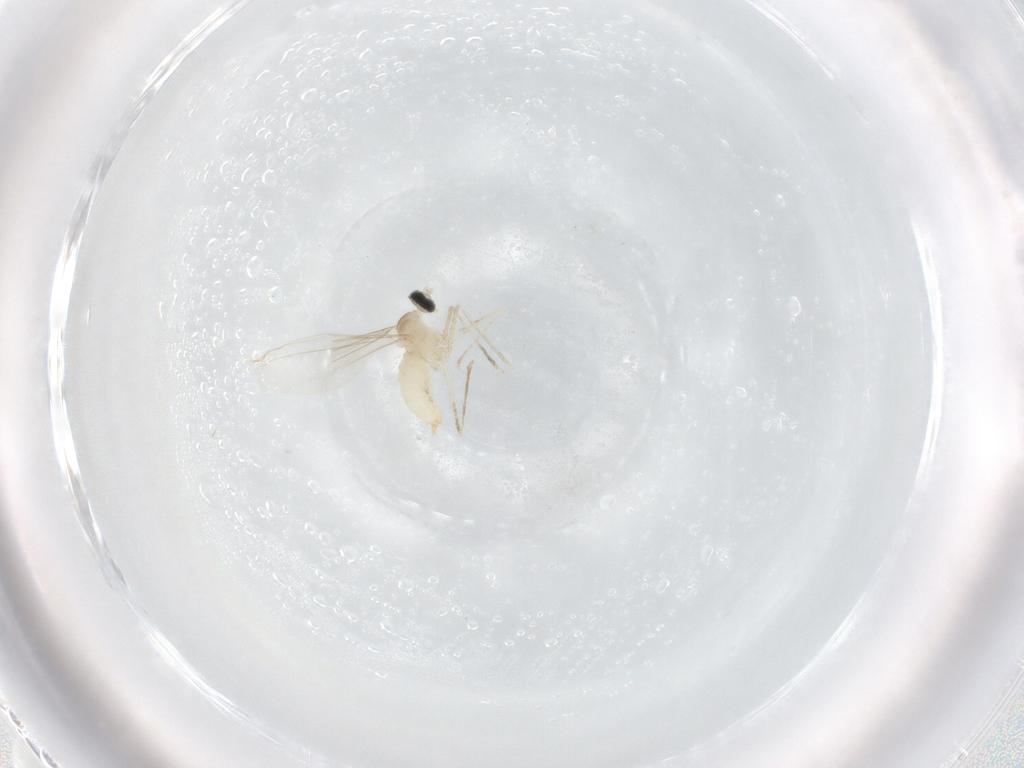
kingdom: Animalia
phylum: Arthropoda
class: Insecta
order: Diptera
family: Cecidomyiidae
